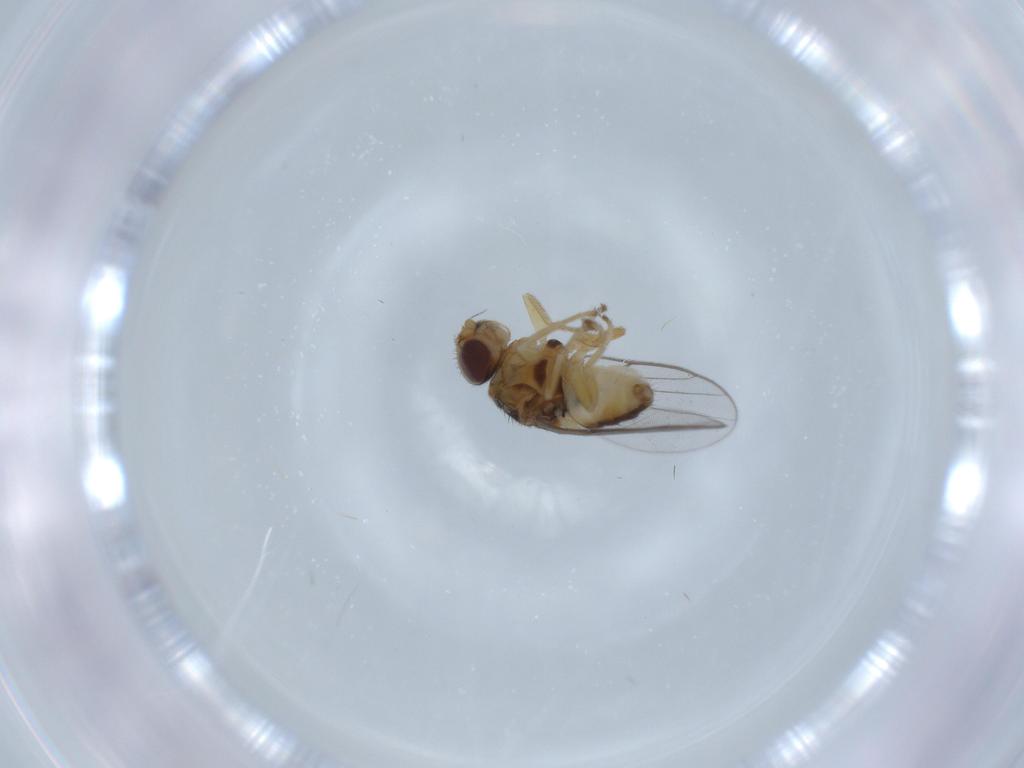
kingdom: Animalia
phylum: Arthropoda
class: Insecta
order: Diptera
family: Chloropidae
